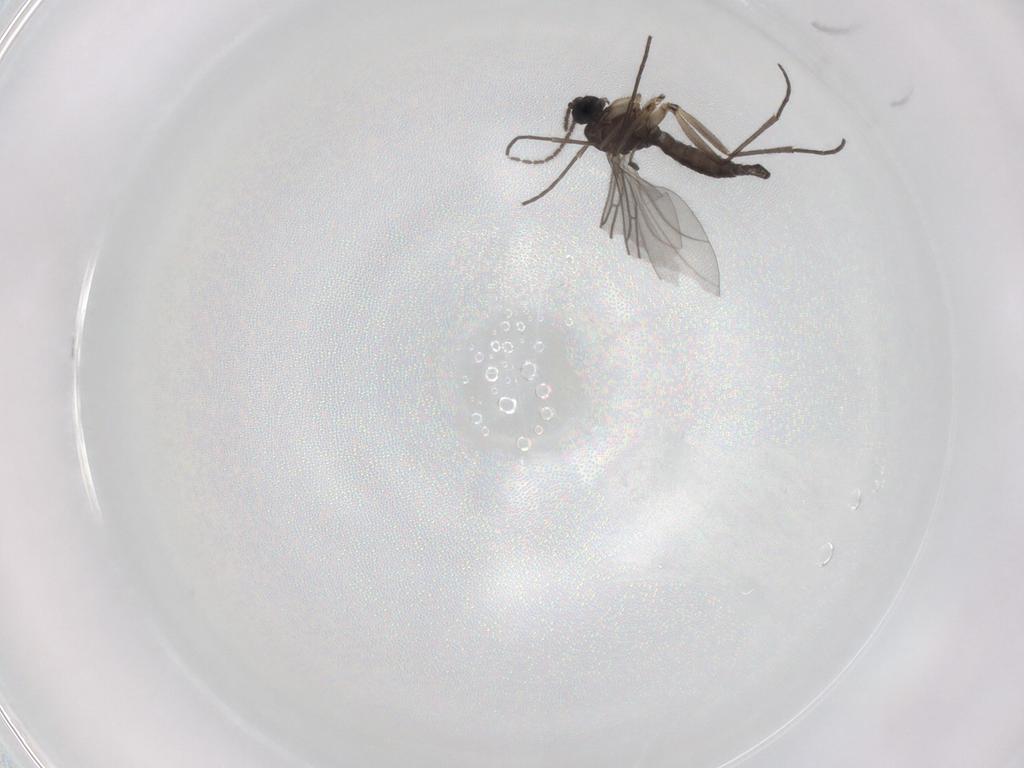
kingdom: Animalia
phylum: Arthropoda
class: Insecta
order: Diptera
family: Sciaridae
